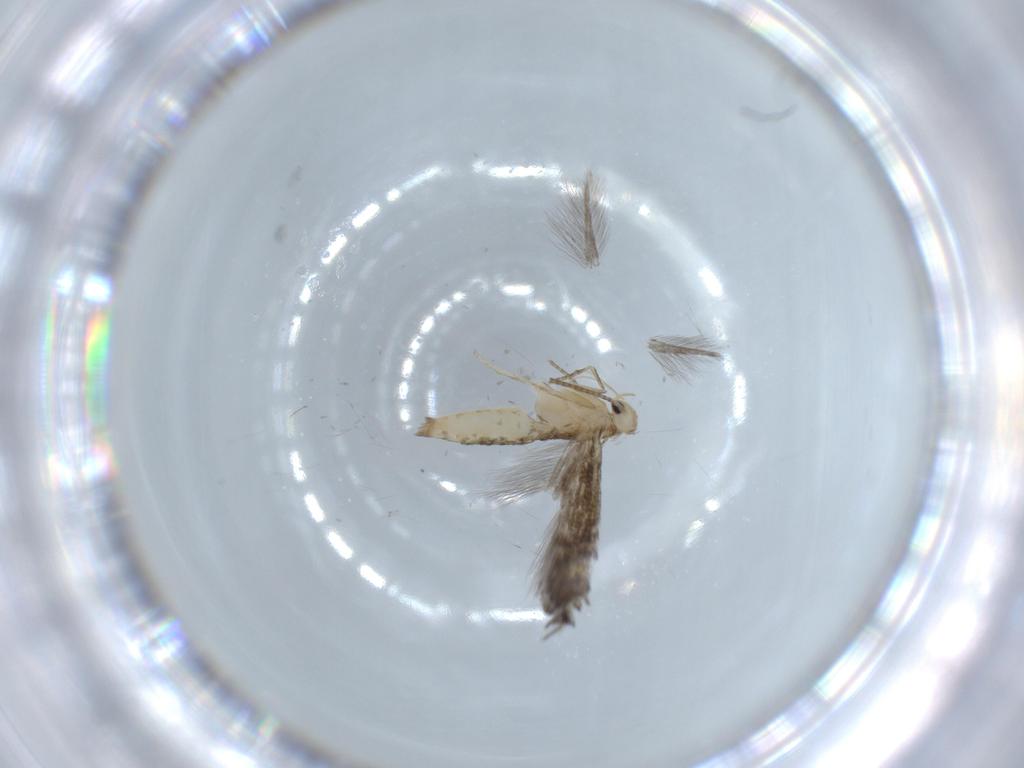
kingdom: Animalia
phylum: Arthropoda
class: Insecta
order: Lepidoptera
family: Gracillariidae
